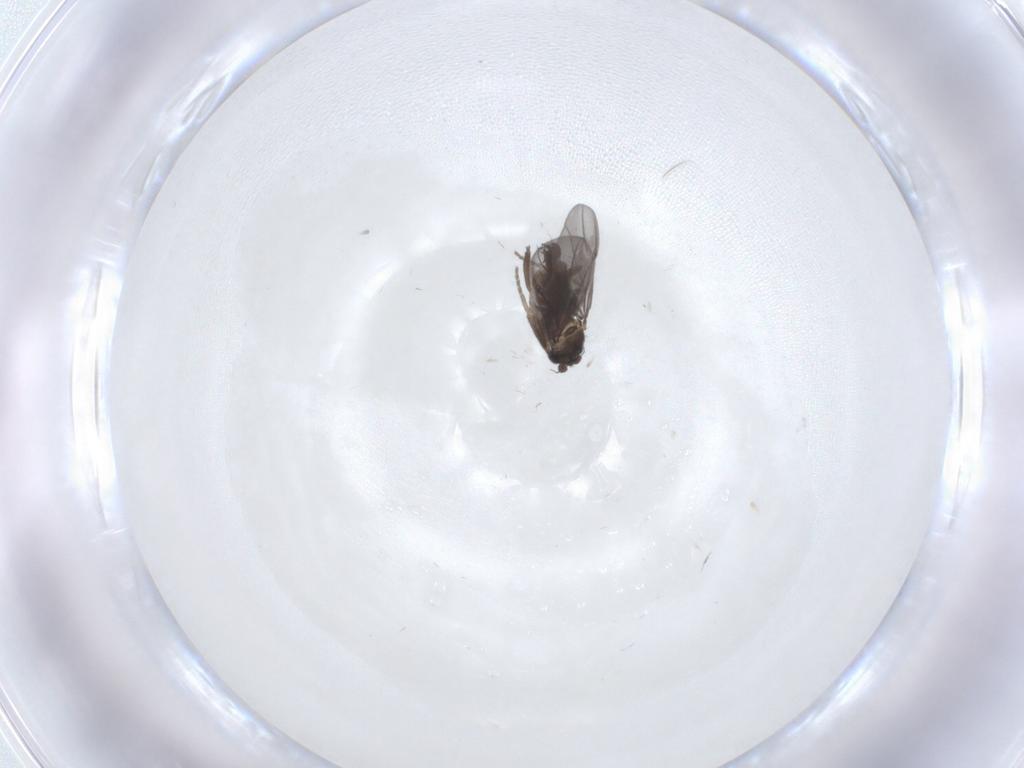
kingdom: Animalia
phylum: Arthropoda
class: Insecta
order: Diptera
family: Phoridae
